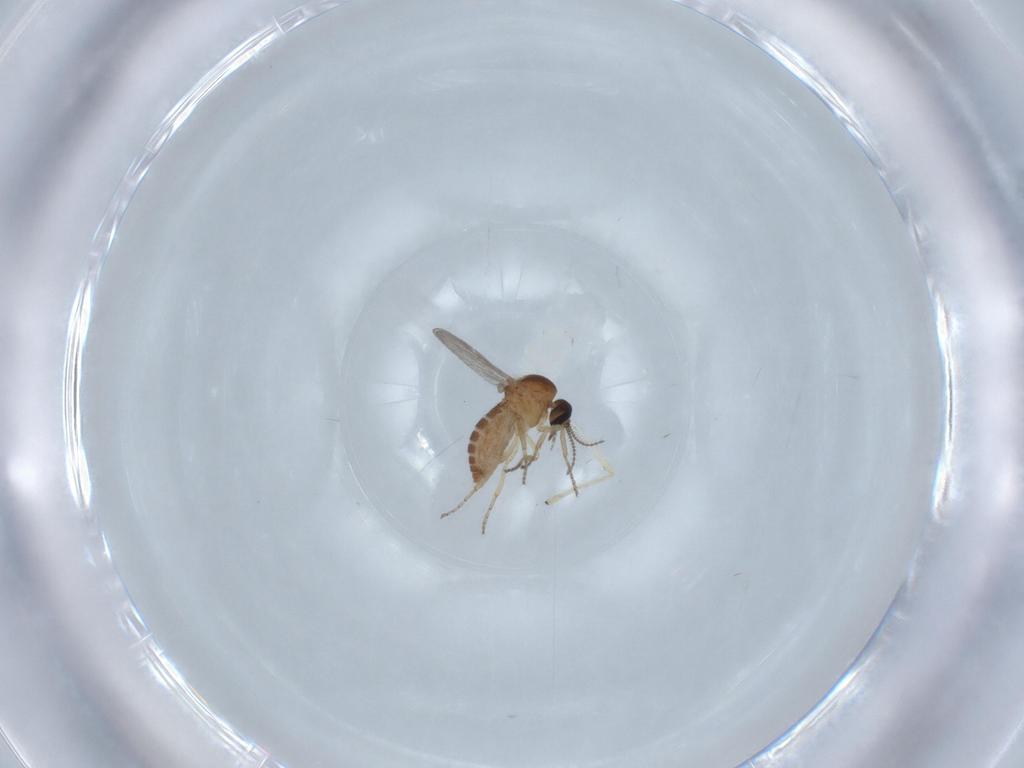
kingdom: Animalia
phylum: Arthropoda
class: Insecta
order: Diptera
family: Ceratopogonidae
